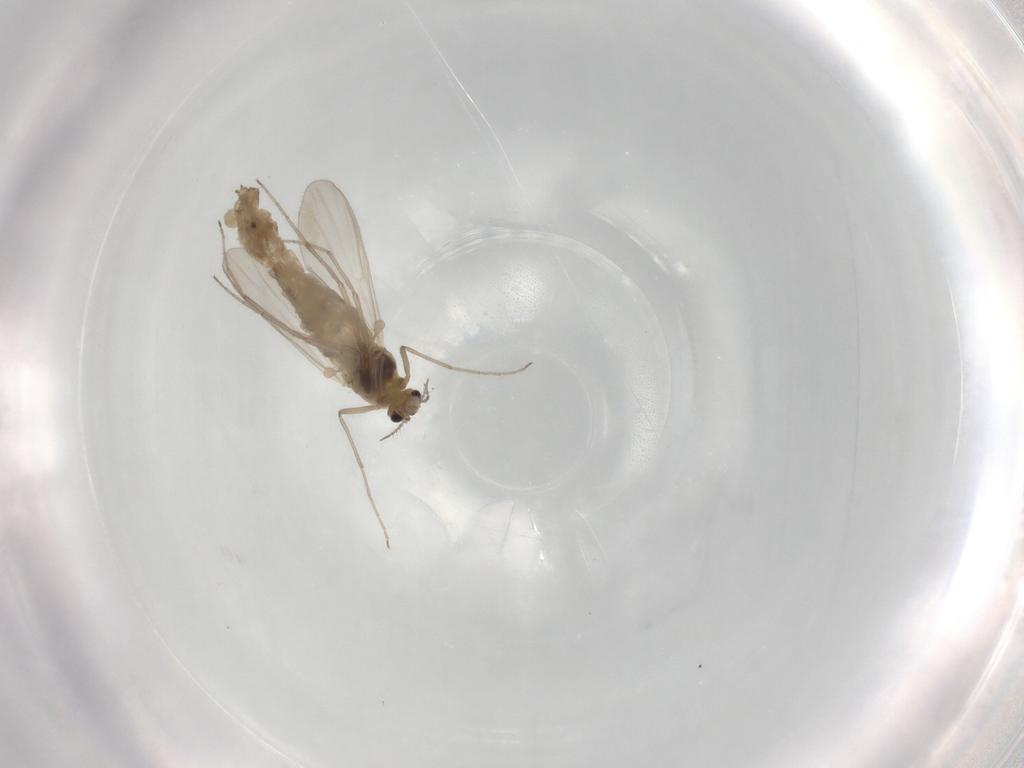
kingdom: Animalia
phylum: Arthropoda
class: Insecta
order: Diptera
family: Chironomidae
